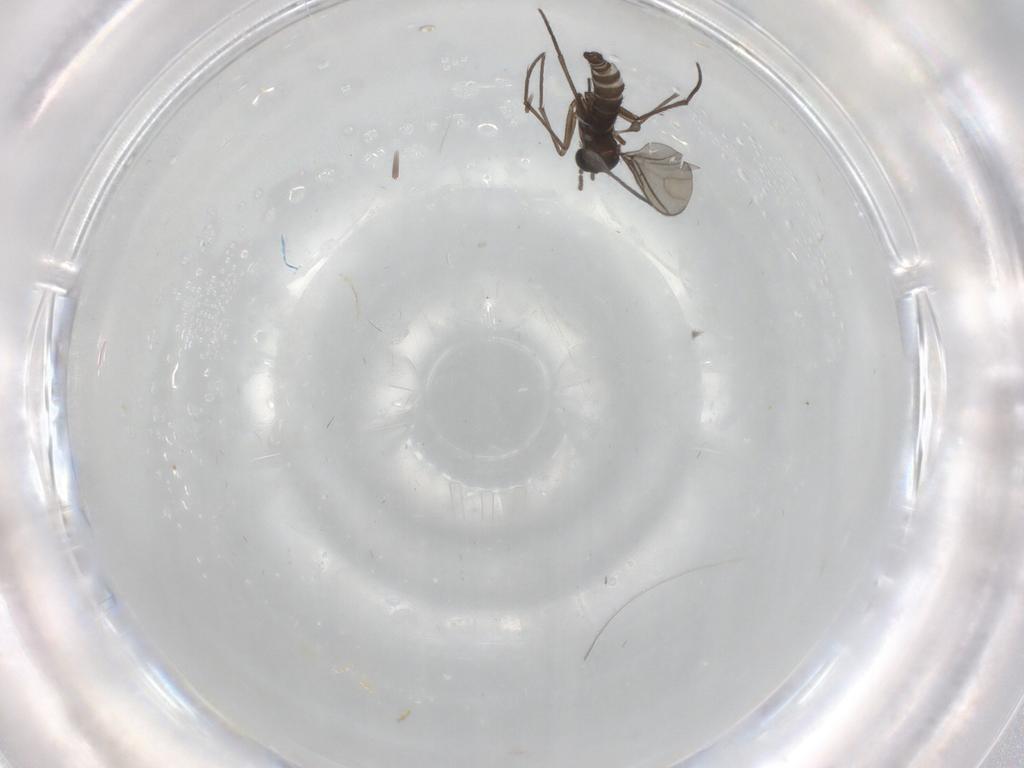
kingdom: Animalia
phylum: Arthropoda
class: Insecta
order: Diptera
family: Sciaridae
